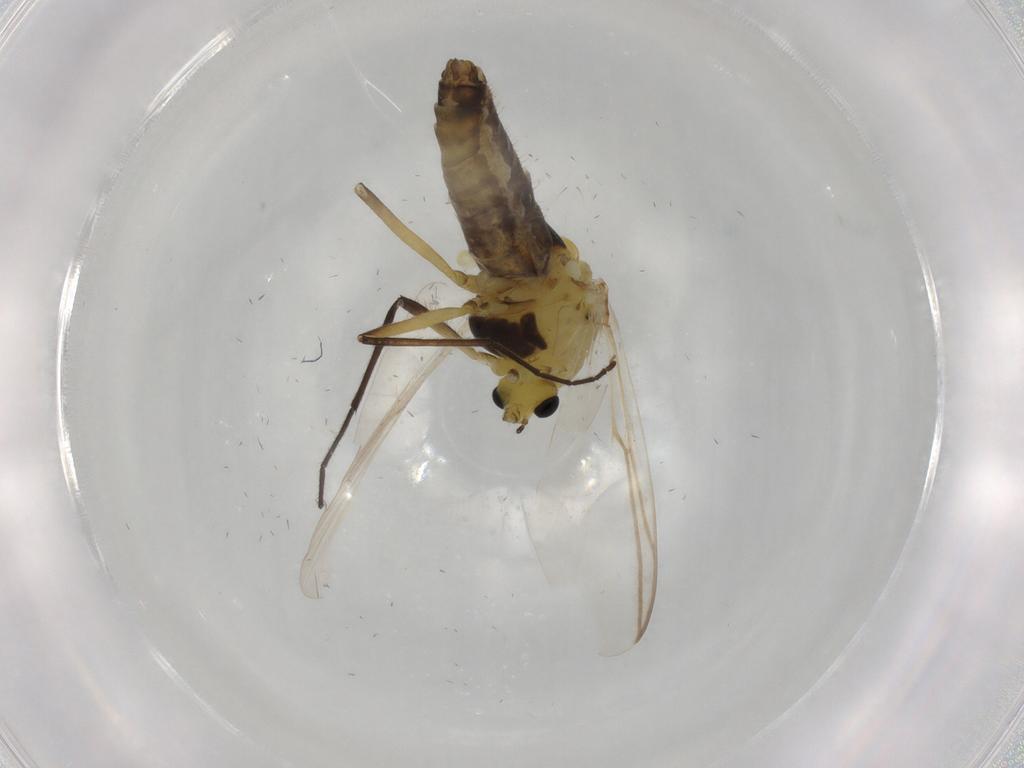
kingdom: Animalia
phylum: Arthropoda
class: Insecta
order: Diptera
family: Chironomidae
